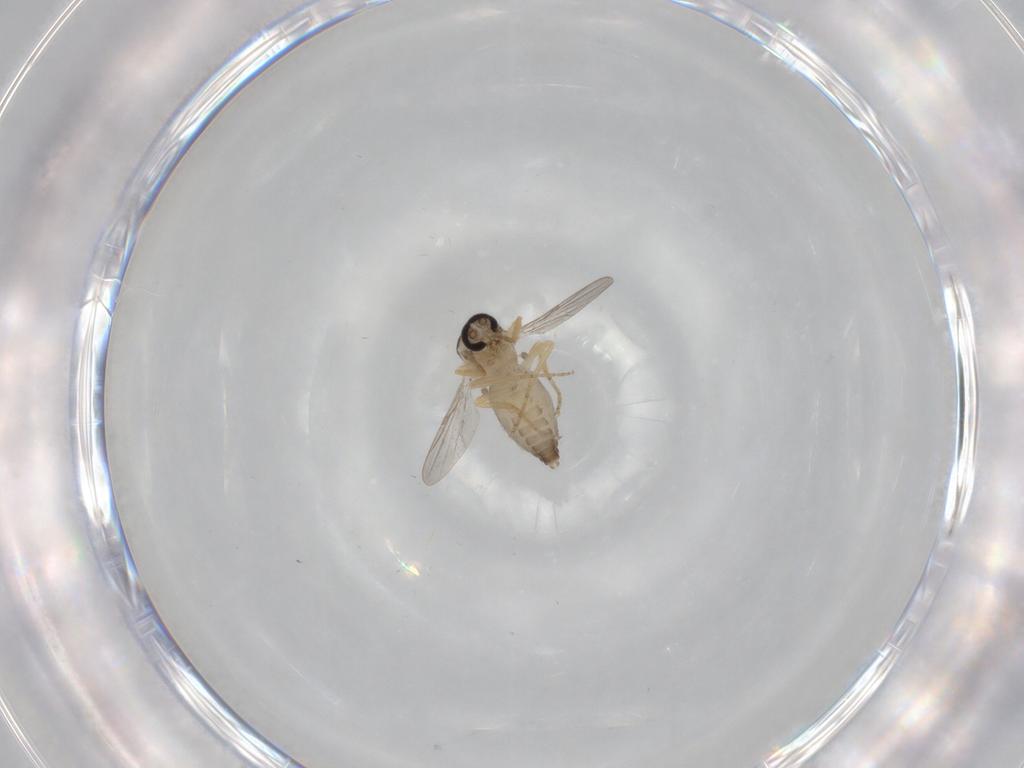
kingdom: Animalia
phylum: Arthropoda
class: Insecta
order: Diptera
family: Ceratopogonidae
